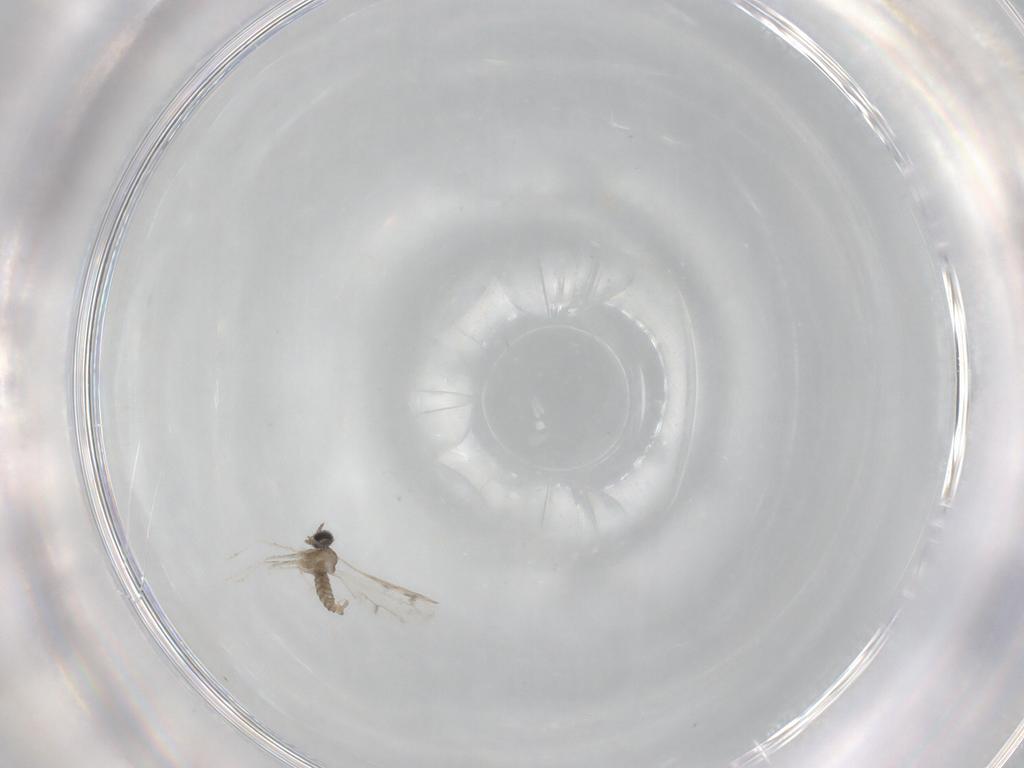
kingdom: Animalia
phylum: Arthropoda
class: Insecta
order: Diptera
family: Cecidomyiidae
